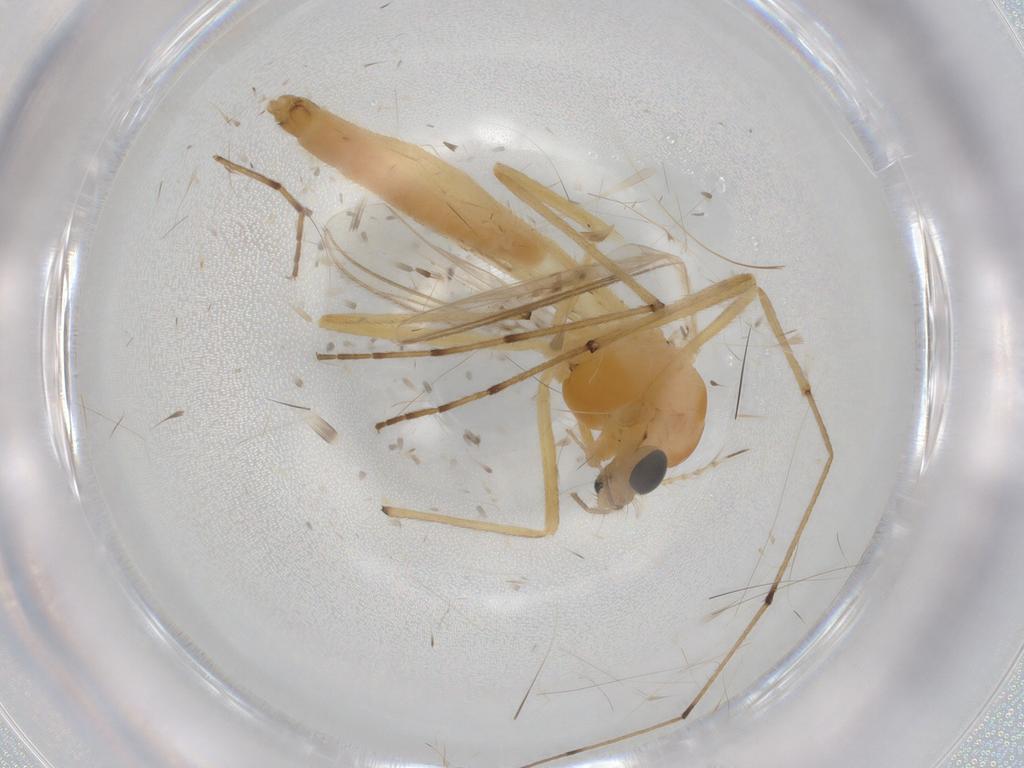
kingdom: Animalia
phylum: Arthropoda
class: Insecta
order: Diptera
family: Chironomidae
